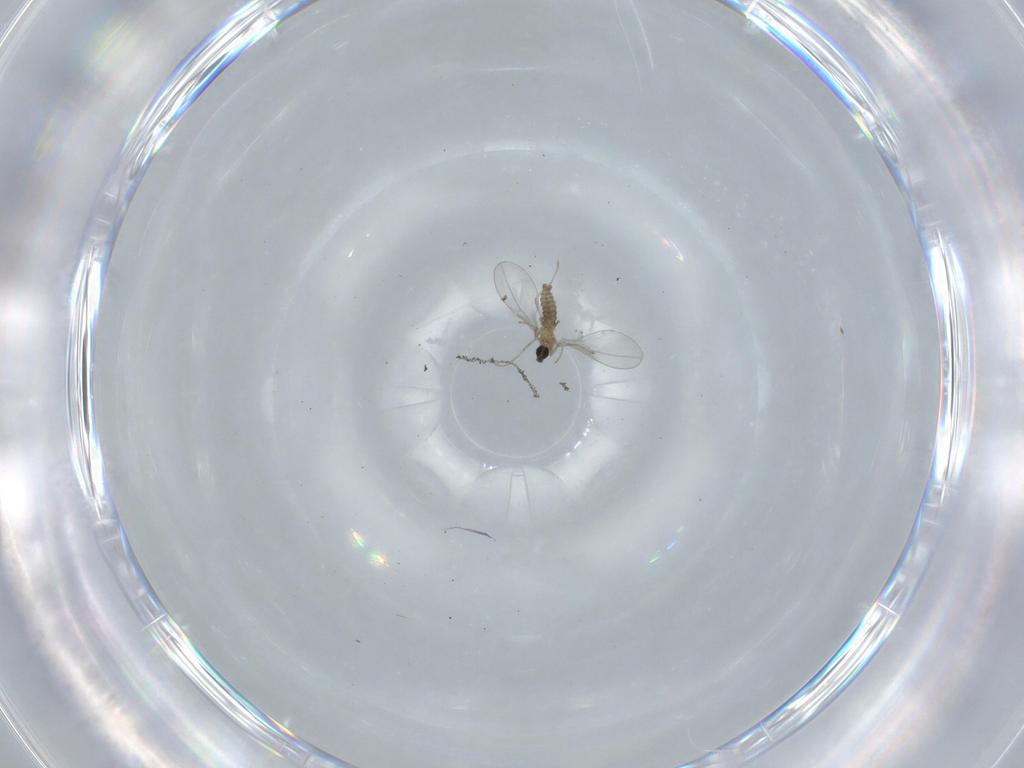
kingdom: Animalia
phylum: Arthropoda
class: Insecta
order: Diptera
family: Cecidomyiidae
